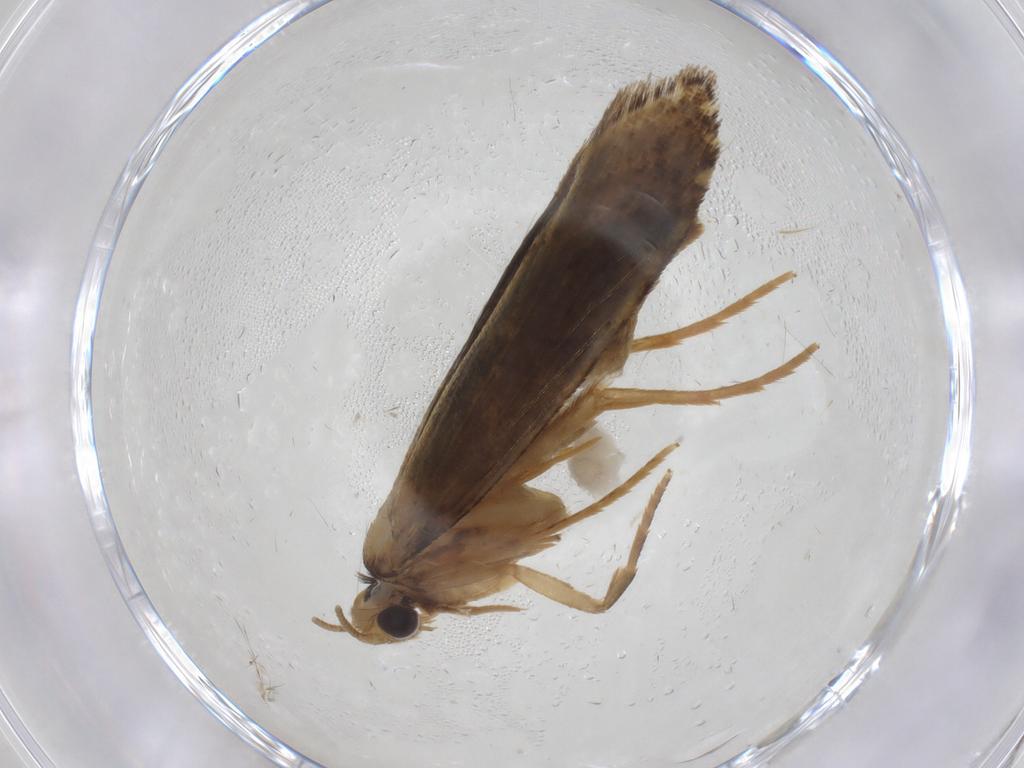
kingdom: Animalia
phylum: Arthropoda
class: Insecta
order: Lepidoptera
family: Tineidae
